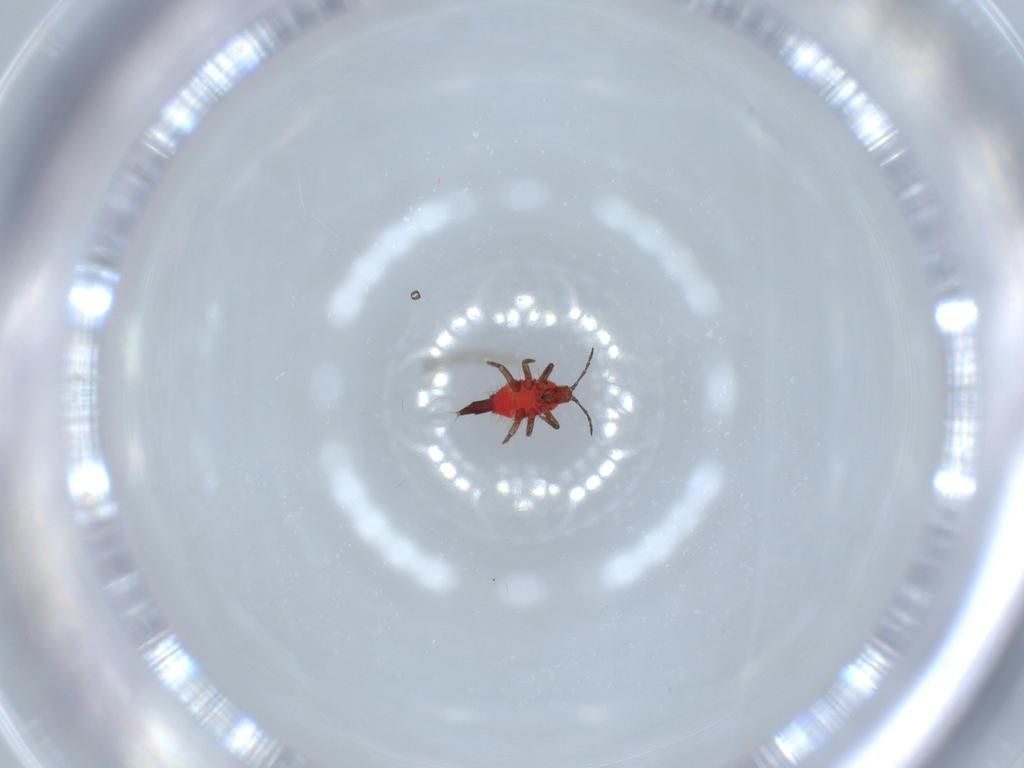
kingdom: Animalia
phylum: Arthropoda
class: Insecta
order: Thysanoptera
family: Phlaeothripidae
